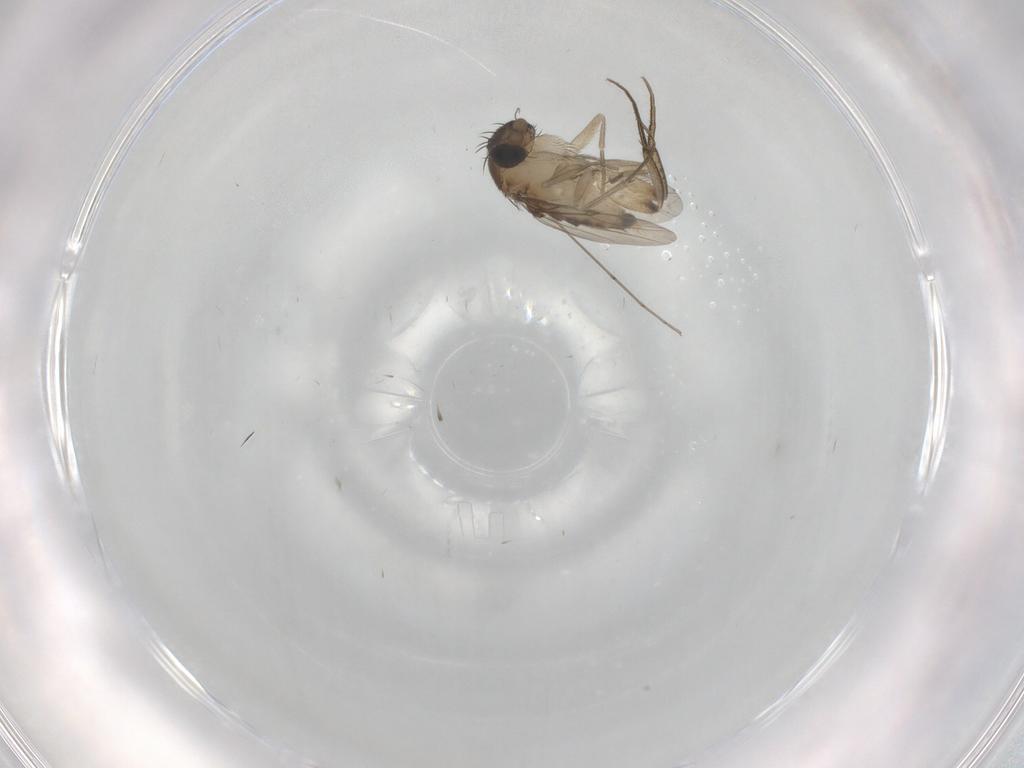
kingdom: Animalia
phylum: Arthropoda
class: Insecta
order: Diptera
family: Phoridae
